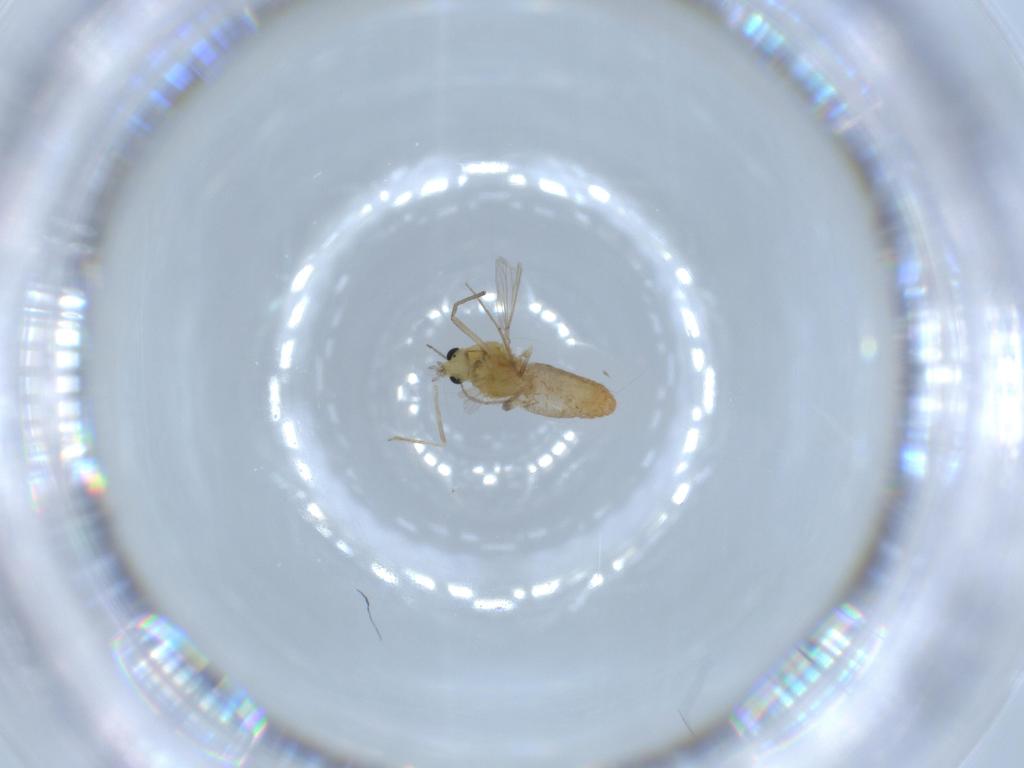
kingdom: Animalia
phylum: Arthropoda
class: Insecta
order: Diptera
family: Chironomidae
